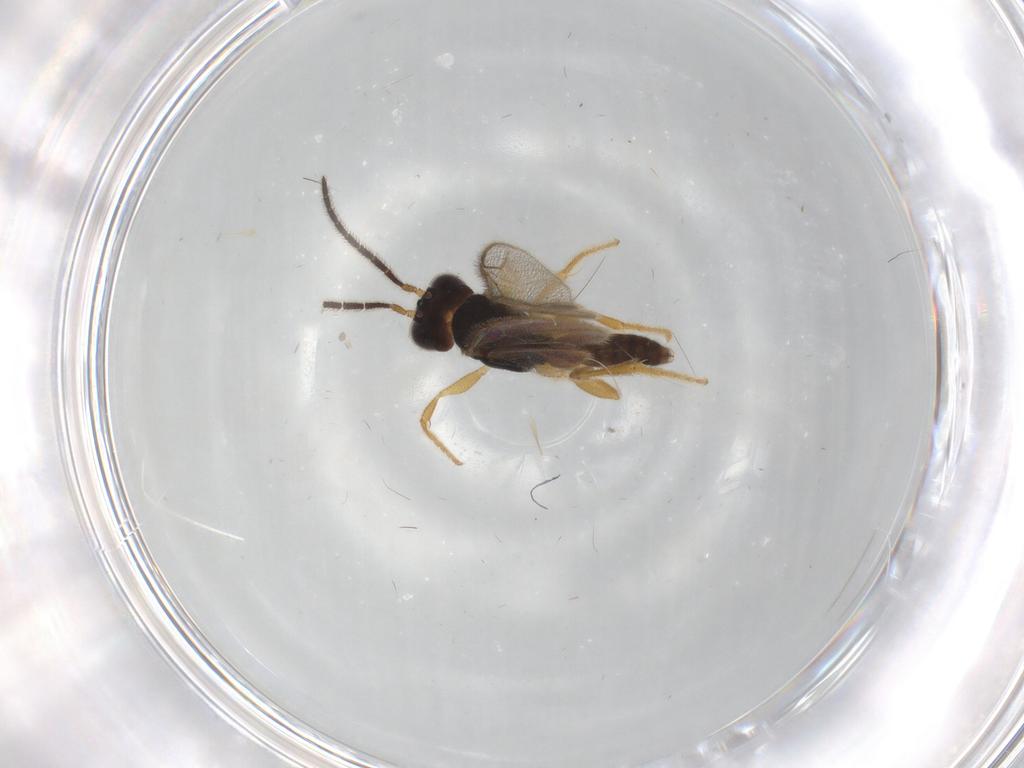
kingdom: Animalia
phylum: Arthropoda
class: Insecta
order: Hymenoptera
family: Dryinidae
